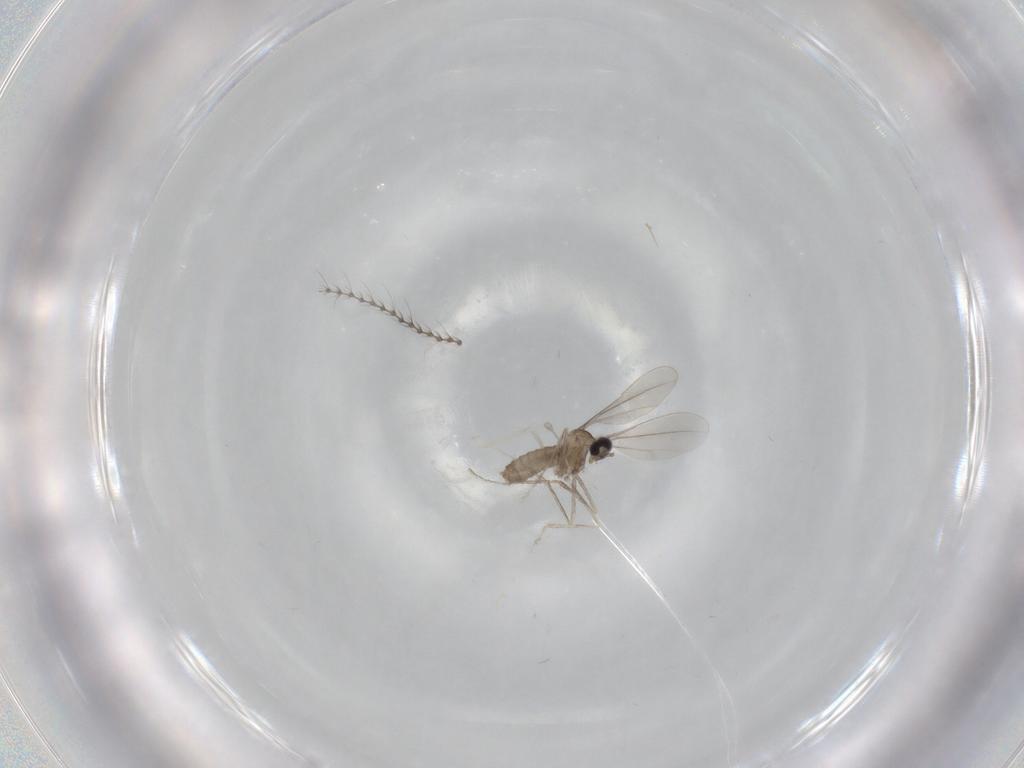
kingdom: Animalia
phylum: Arthropoda
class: Insecta
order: Diptera
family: Cecidomyiidae
